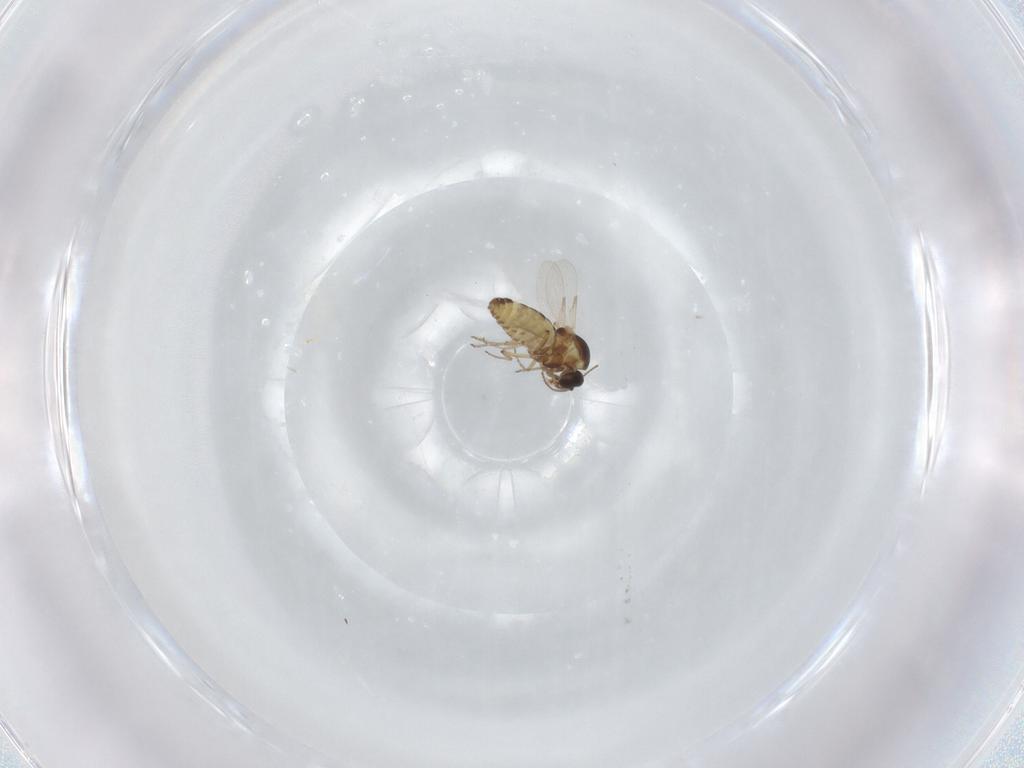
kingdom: Animalia
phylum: Arthropoda
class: Insecta
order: Diptera
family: Ceratopogonidae
